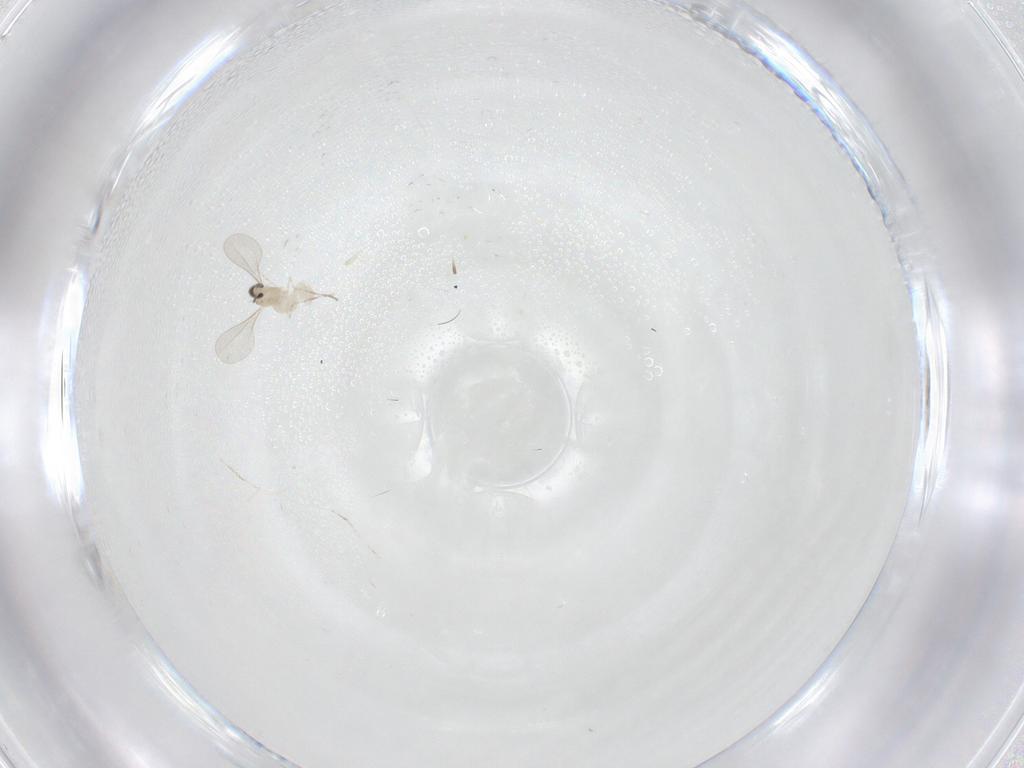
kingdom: Animalia
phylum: Arthropoda
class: Insecta
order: Diptera
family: Cecidomyiidae
